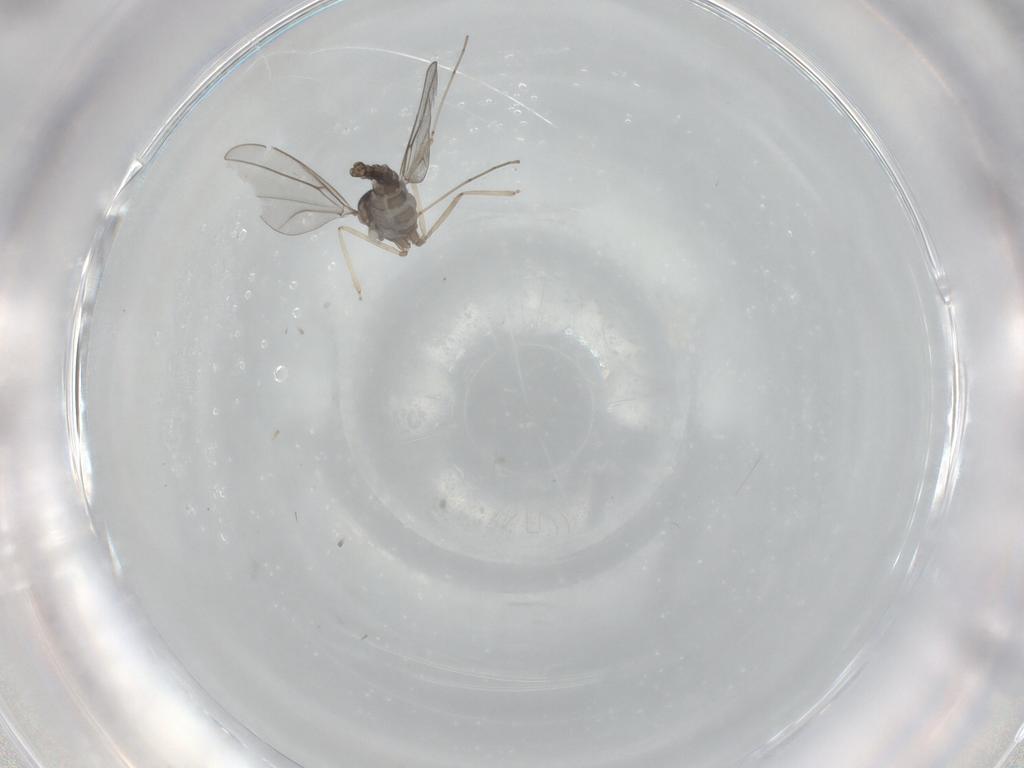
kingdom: Animalia
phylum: Arthropoda
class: Insecta
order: Diptera
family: Cecidomyiidae
